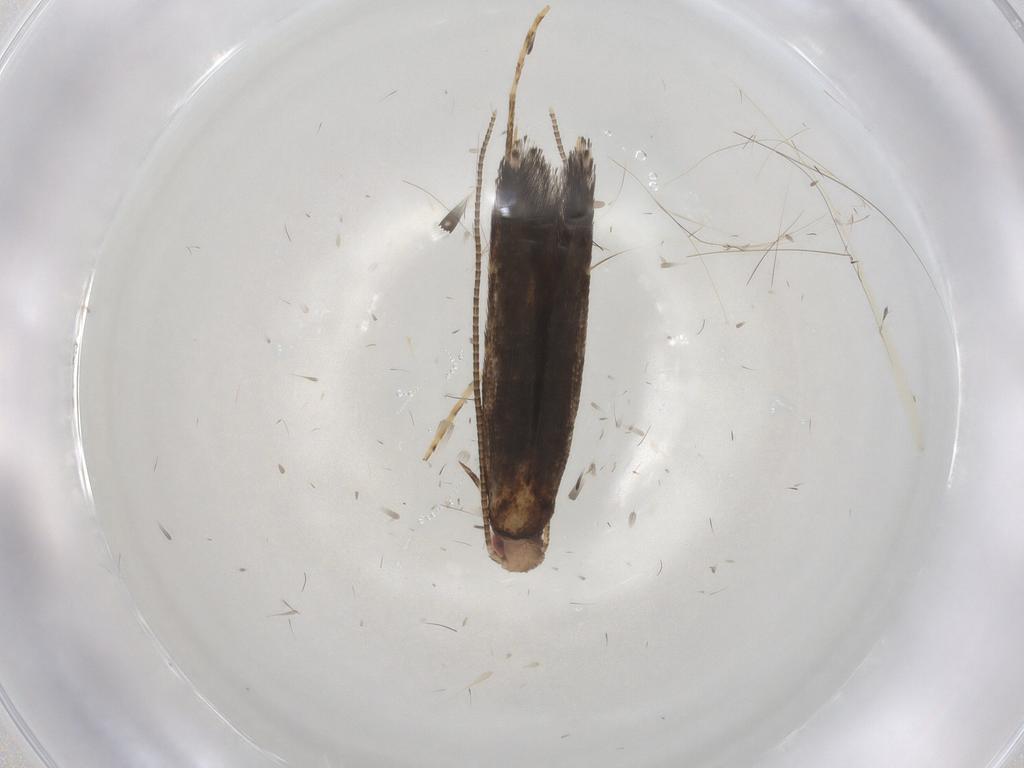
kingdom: Animalia
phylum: Arthropoda
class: Insecta
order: Lepidoptera
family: Gracillariidae
